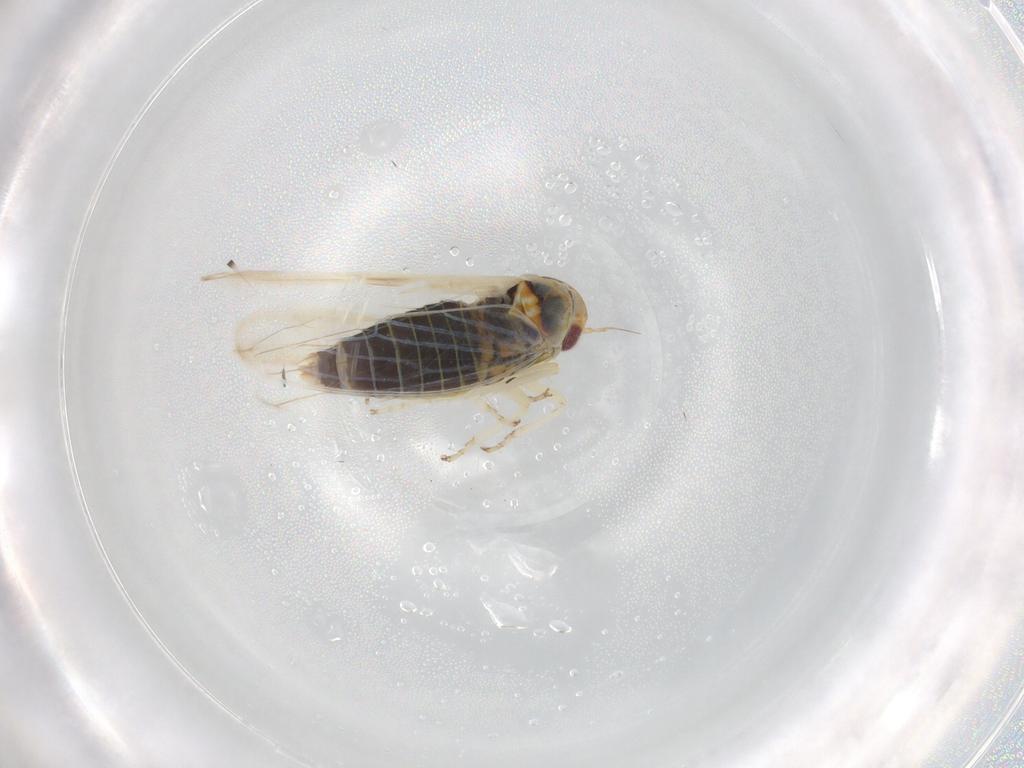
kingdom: Animalia
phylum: Arthropoda
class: Insecta
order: Hemiptera
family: Cicadellidae
